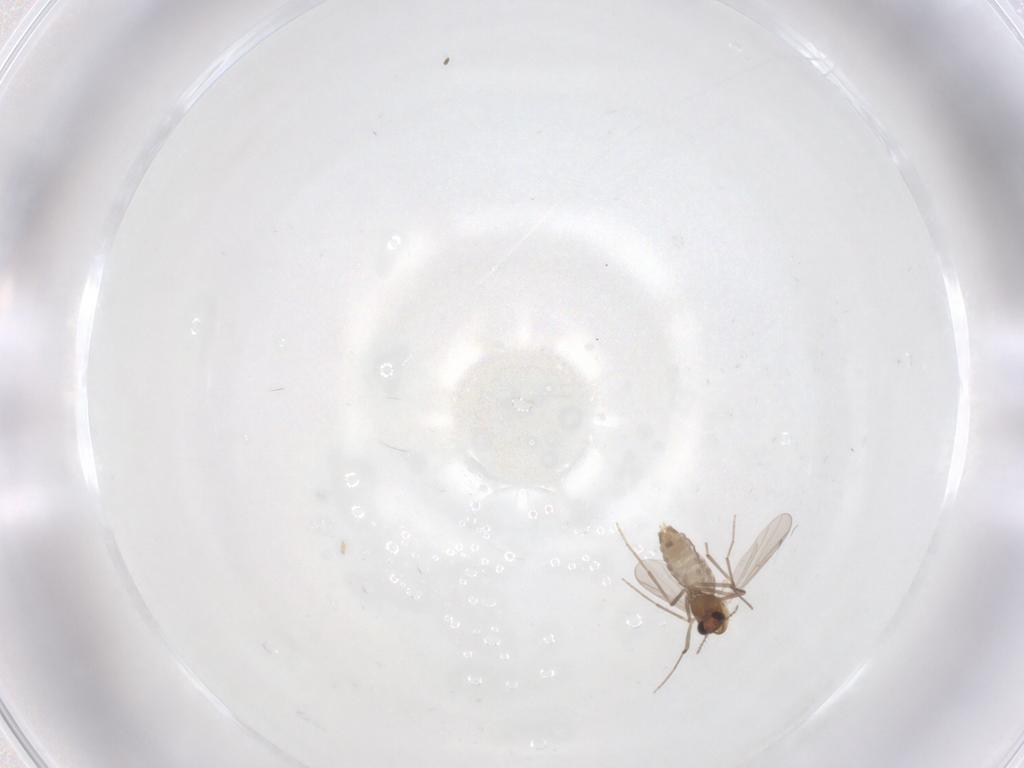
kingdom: Animalia
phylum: Arthropoda
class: Insecta
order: Diptera
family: Chironomidae
